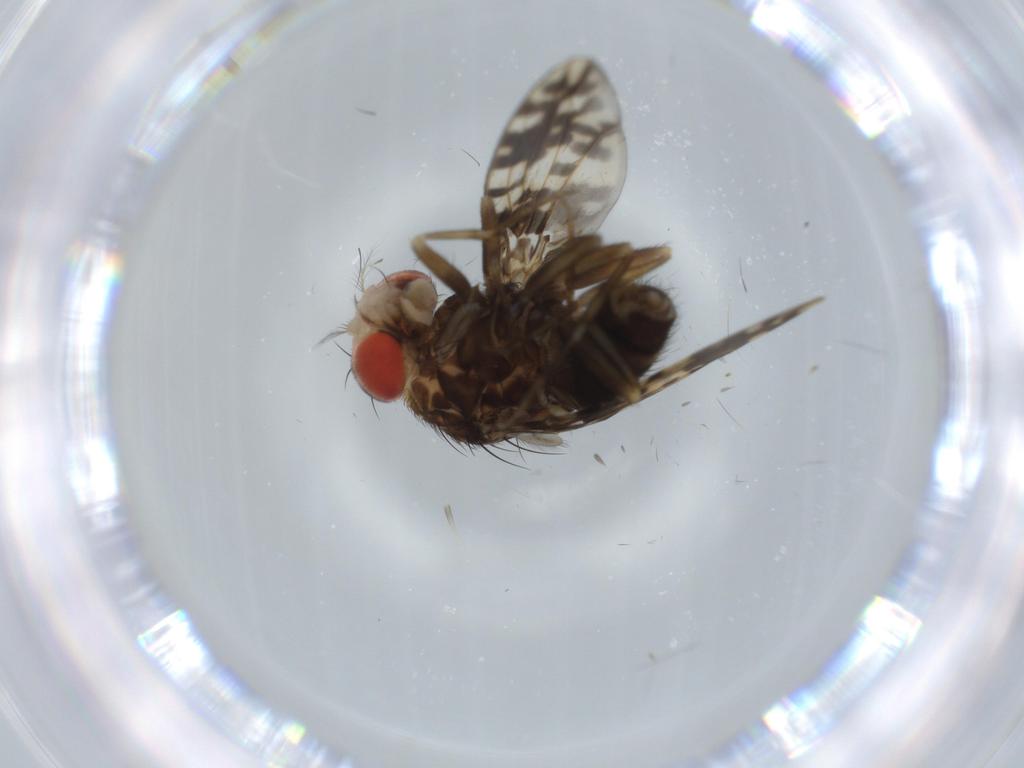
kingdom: Animalia
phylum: Arthropoda
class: Insecta
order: Diptera
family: Drosophilidae
